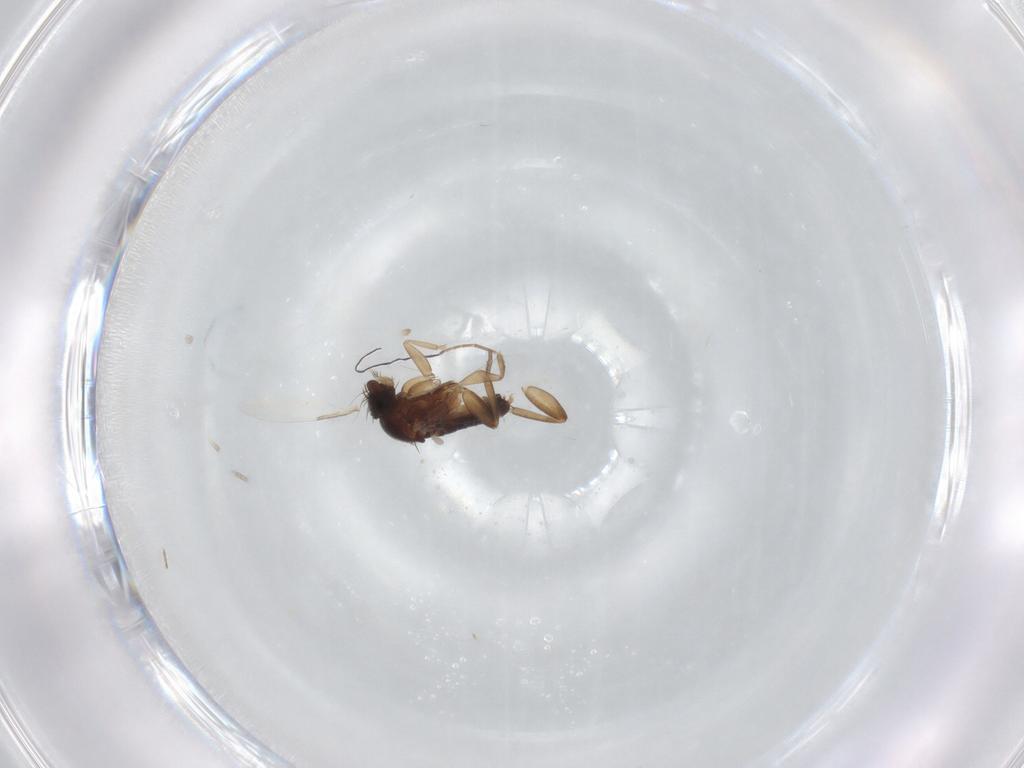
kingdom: Animalia
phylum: Arthropoda
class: Insecta
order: Diptera
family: Phoridae
